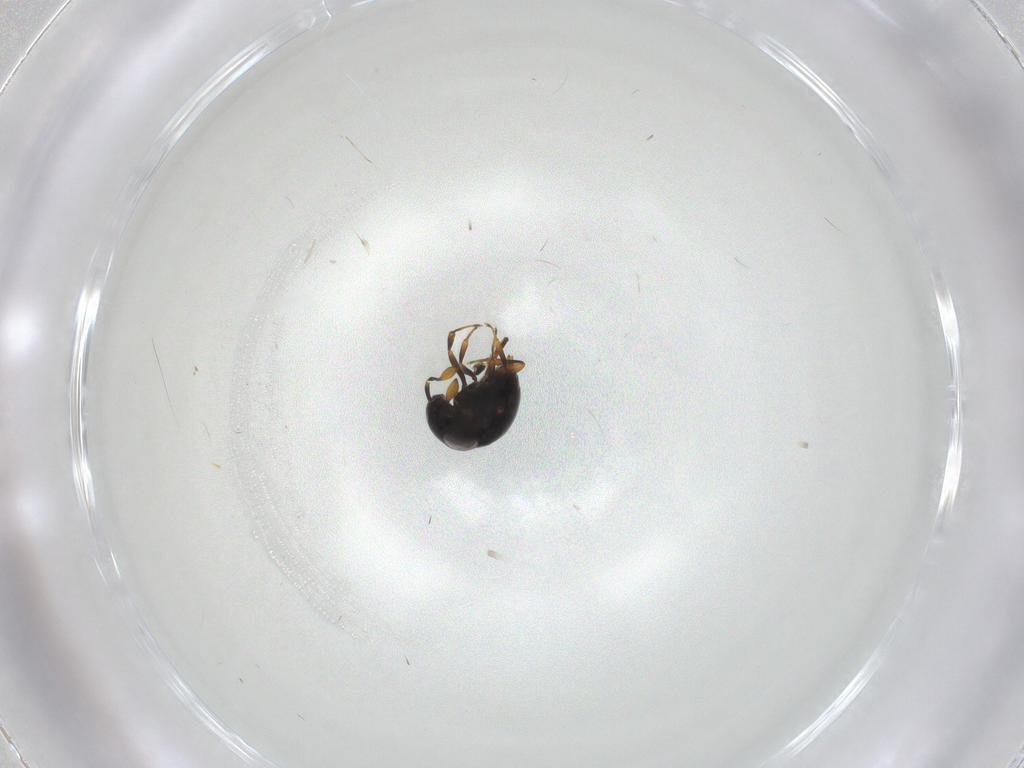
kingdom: Animalia
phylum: Arthropoda
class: Insecta
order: Hymenoptera
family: Scelionidae
